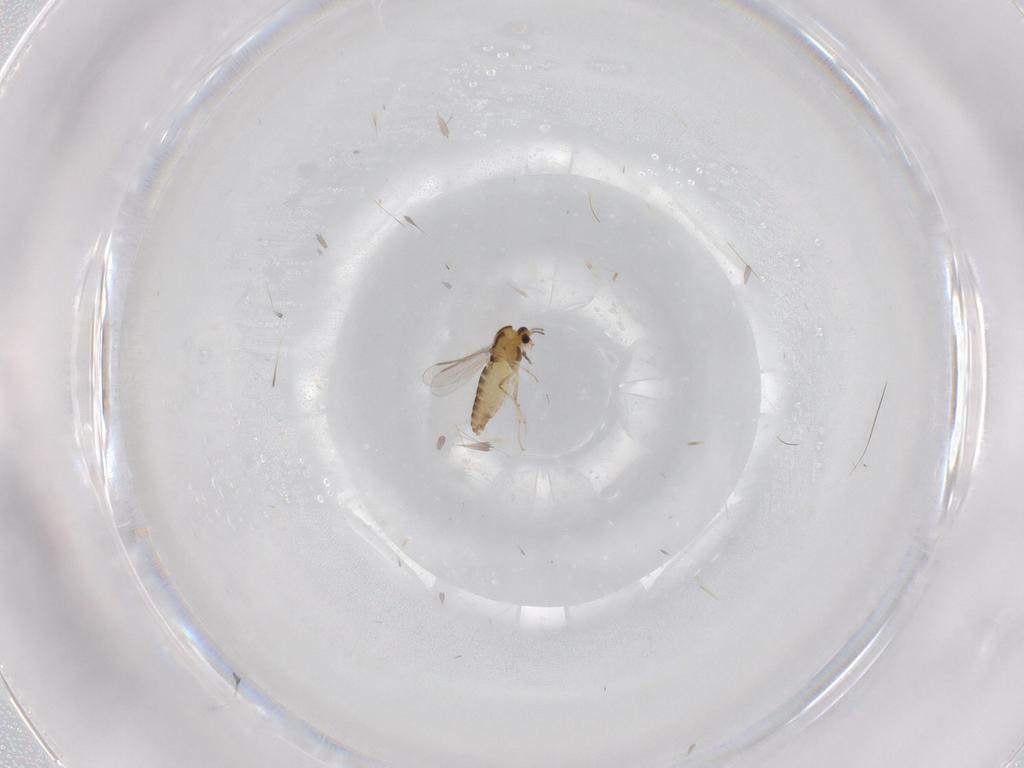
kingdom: Animalia
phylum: Arthropoda
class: Insecta
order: Diptera
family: Chironomidae
